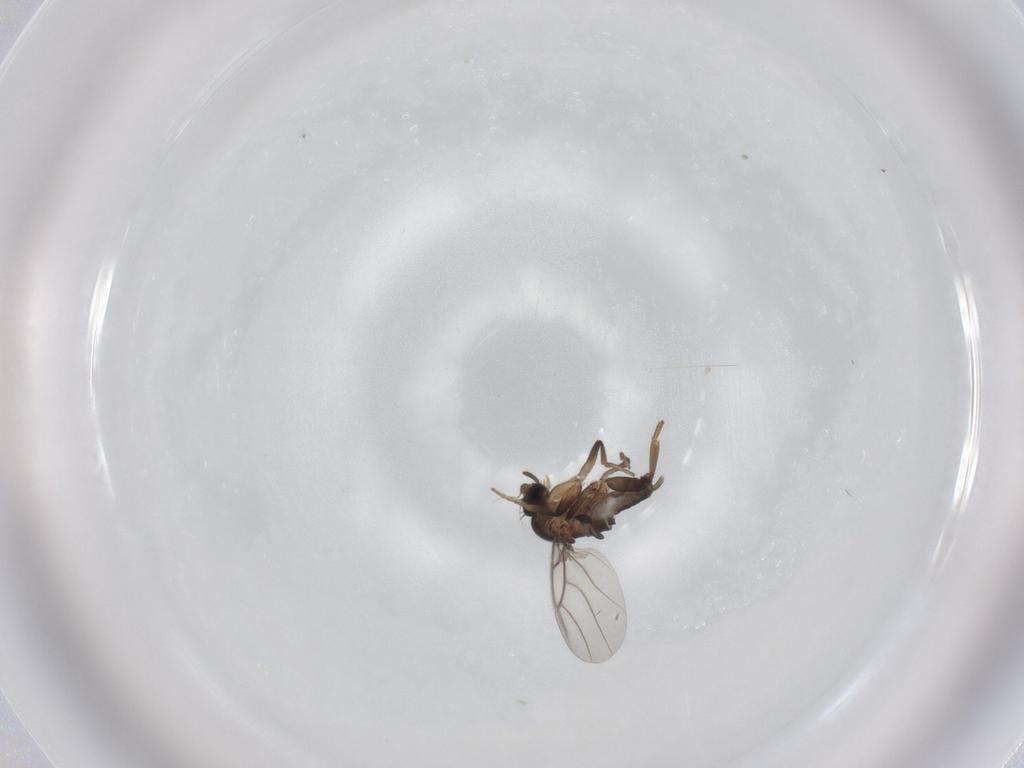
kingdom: Animalia
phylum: Arthropoda
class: Insecta
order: Diptera
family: Phoridae
